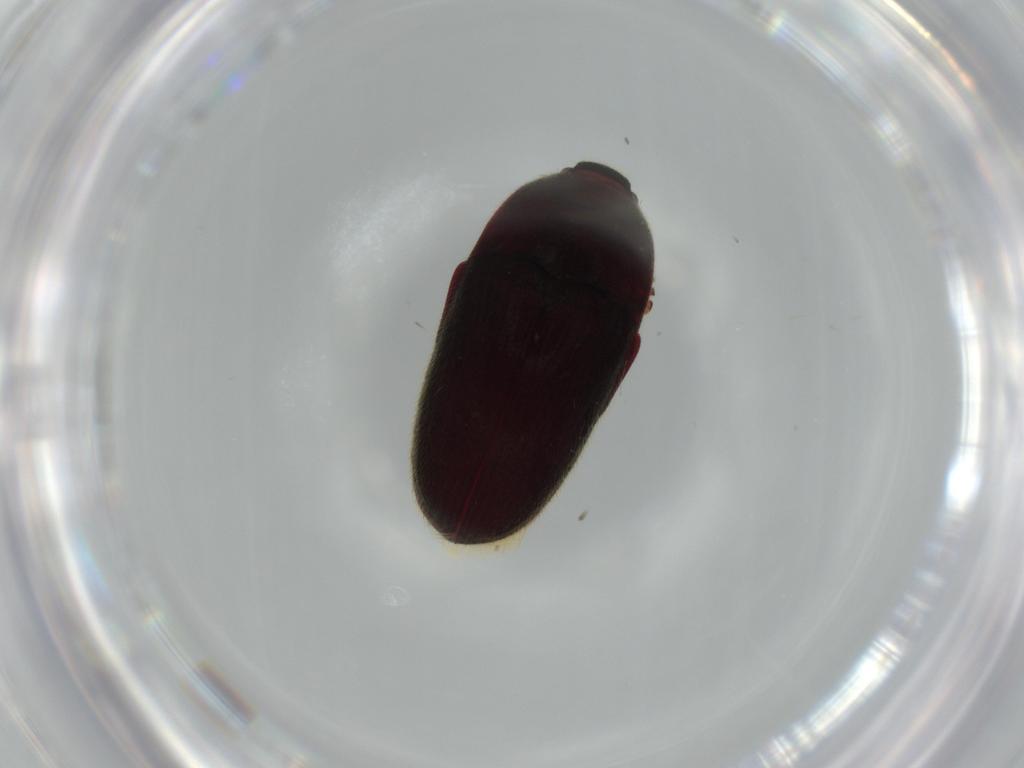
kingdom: Animalia
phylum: Arthropoda
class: Insecta
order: Coleoptera
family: Throscidae
